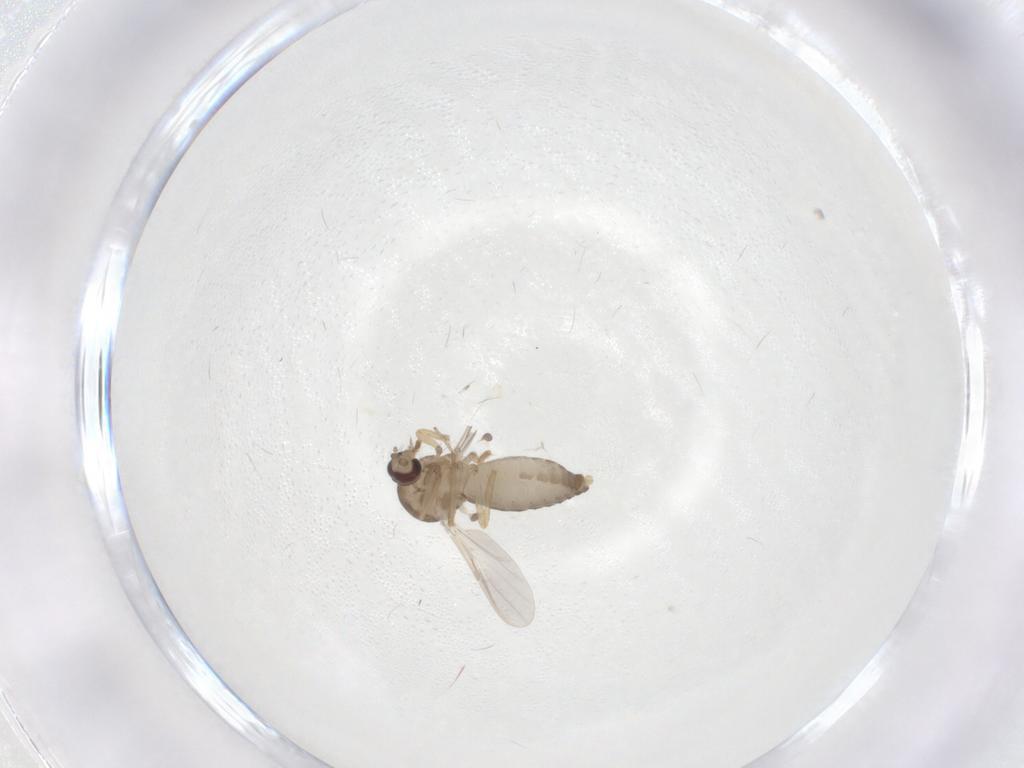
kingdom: Animalia
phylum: Arthropoda
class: Insecta
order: Diptera
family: Ceratopogonidae
